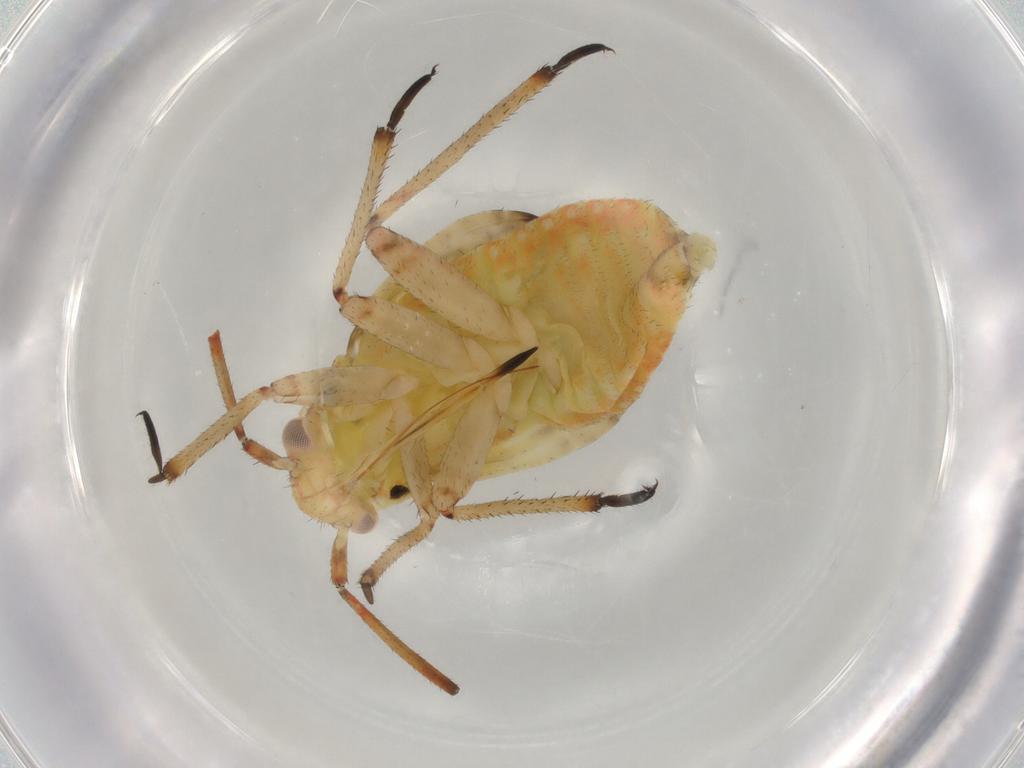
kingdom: Animalia
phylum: Arthropoda
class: Insecta
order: Hemiptera
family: Miridae
